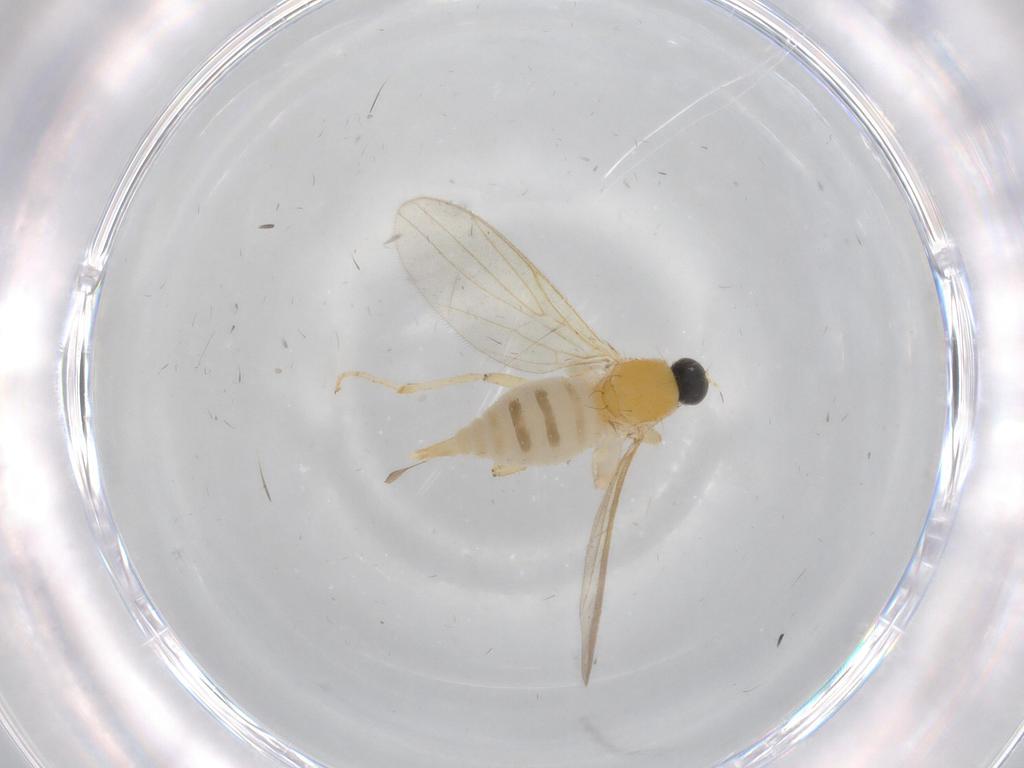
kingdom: Animalia
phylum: Arthropoda
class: Insecta
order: Diptera
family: Hybotidae
